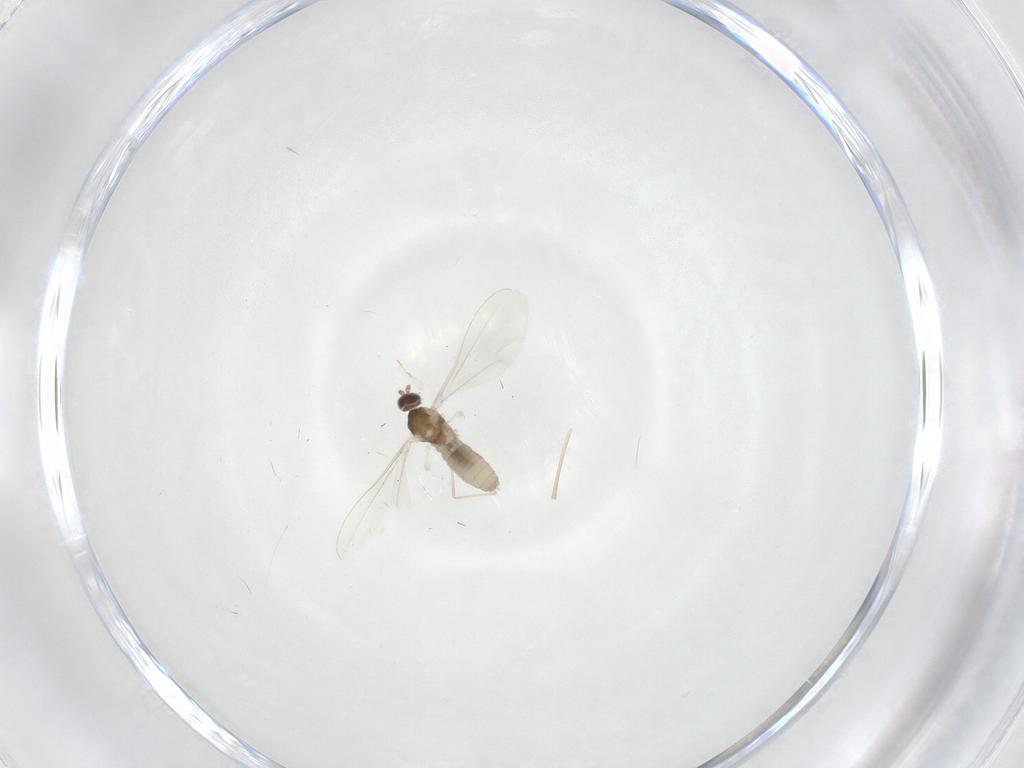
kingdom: Animalia
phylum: Arthropoda
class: Insecta
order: Diptera
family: Cecidomyiidae
